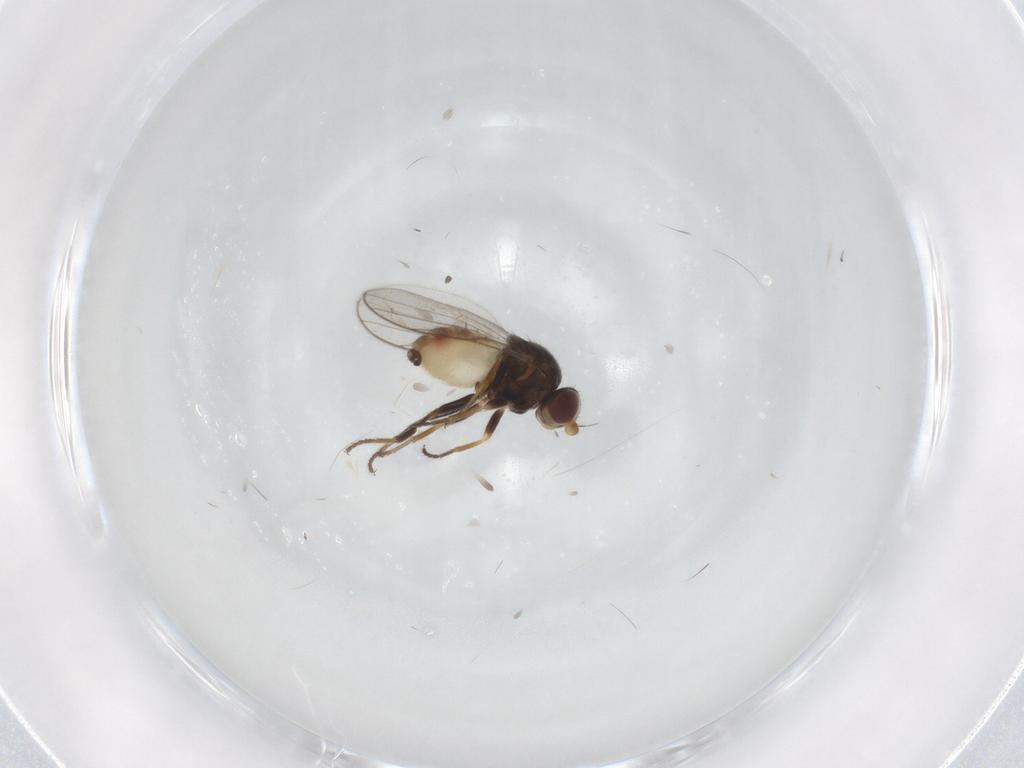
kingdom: Animalia
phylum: Arthropoda
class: Insecta
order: Diptera
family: Chloropidae
